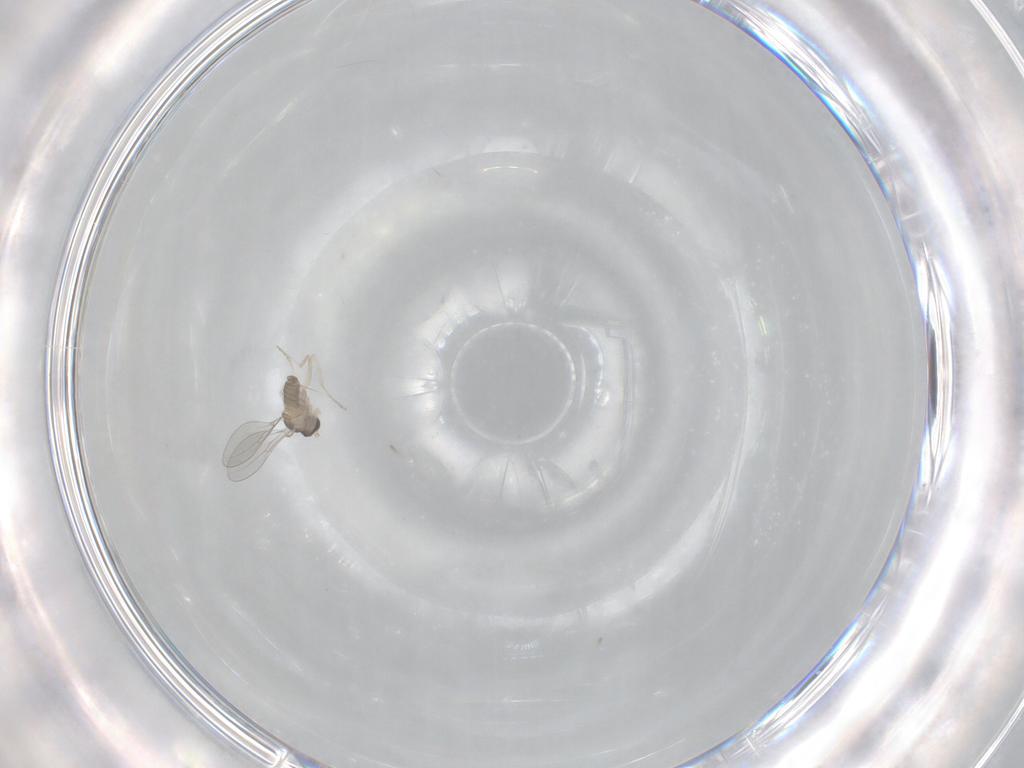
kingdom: Animalia
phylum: Arthropoda
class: Insecta
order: Diptera
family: Cecidomyiidae
